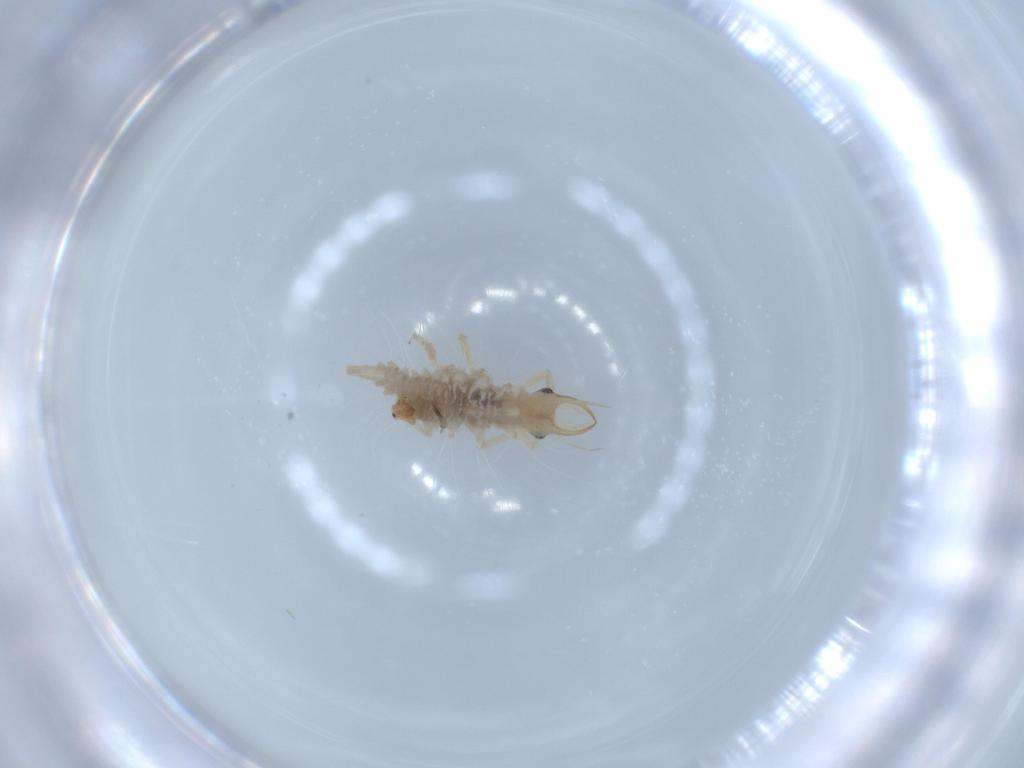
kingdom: Animalia
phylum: Arthropoda
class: Insecta
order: Neuroptera
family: Chrysopidae
